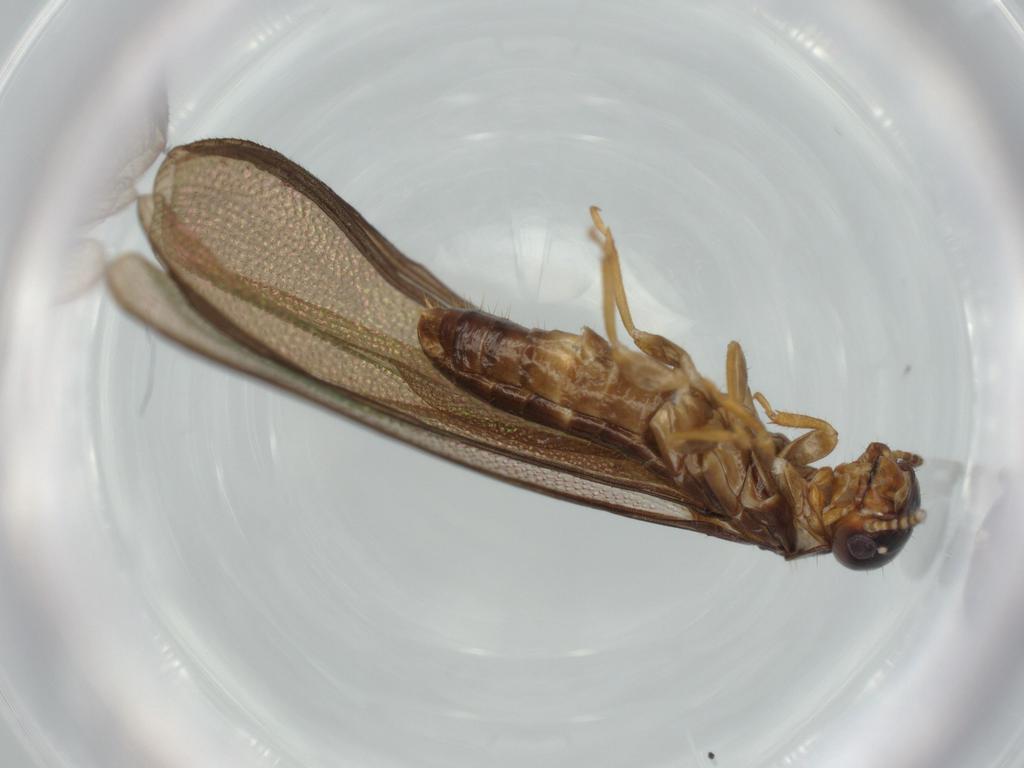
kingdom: Animalia
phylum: Arthropoda
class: Insecta
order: Blattodea
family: Kalotermitidae
